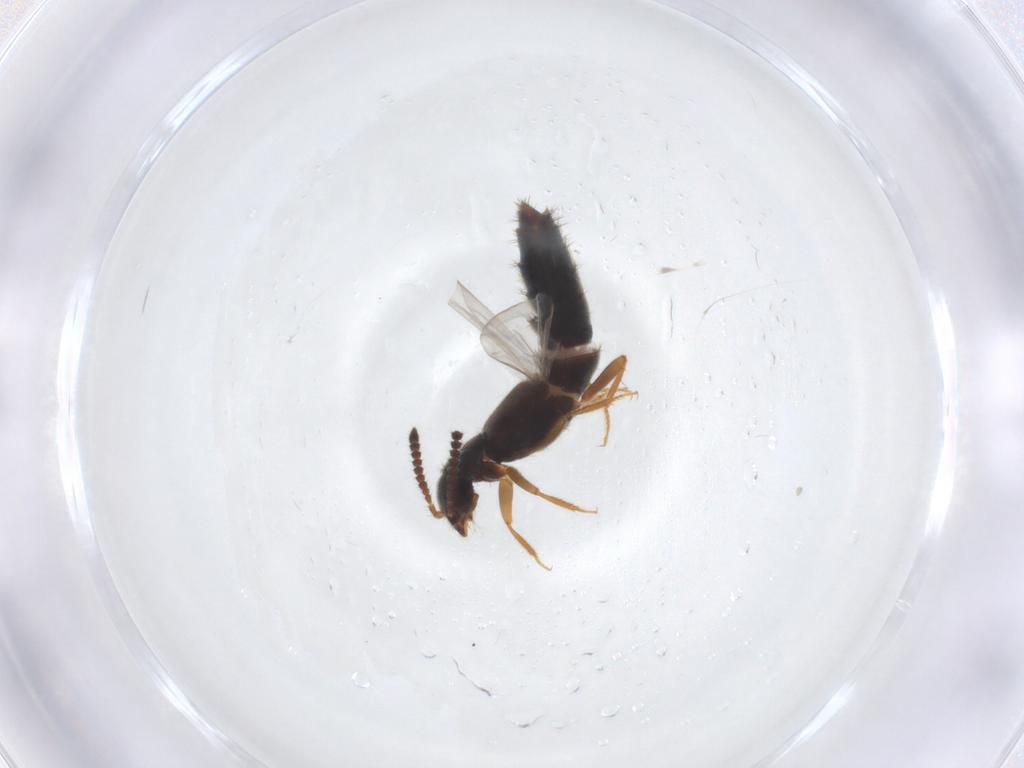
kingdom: Animalia
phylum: Arthropoda
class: Insecta
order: Coleoptera
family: Staphylinidae
